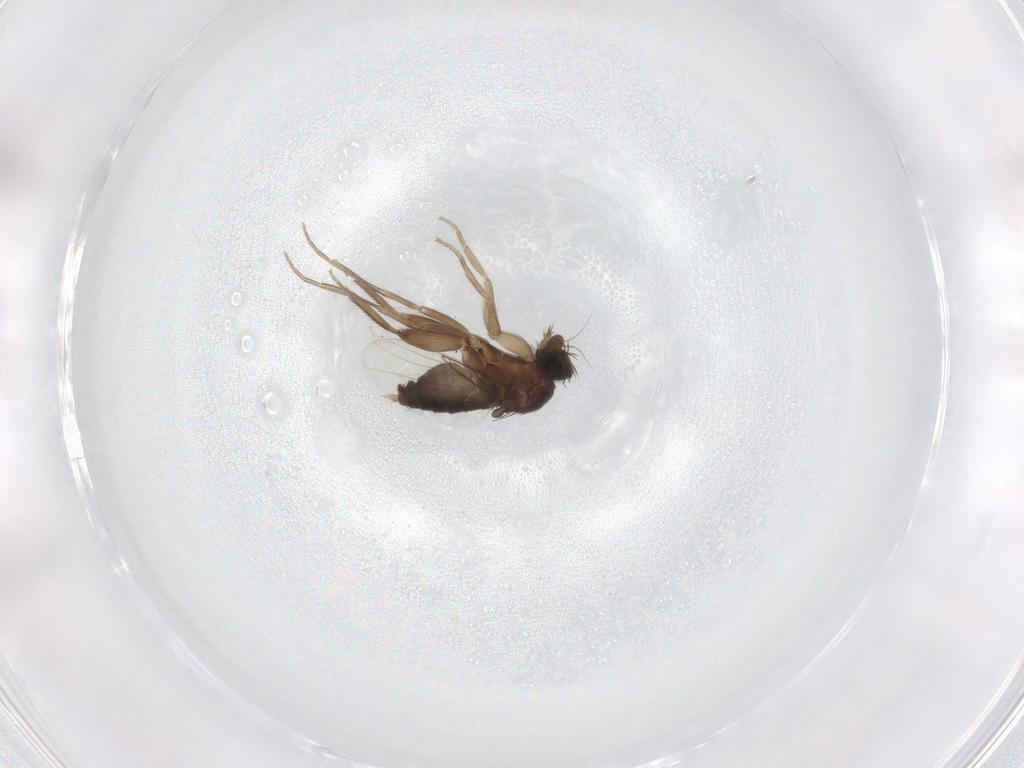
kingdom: Animalia
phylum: Arthropoda
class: Insecta
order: Diptera
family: Phoridae
